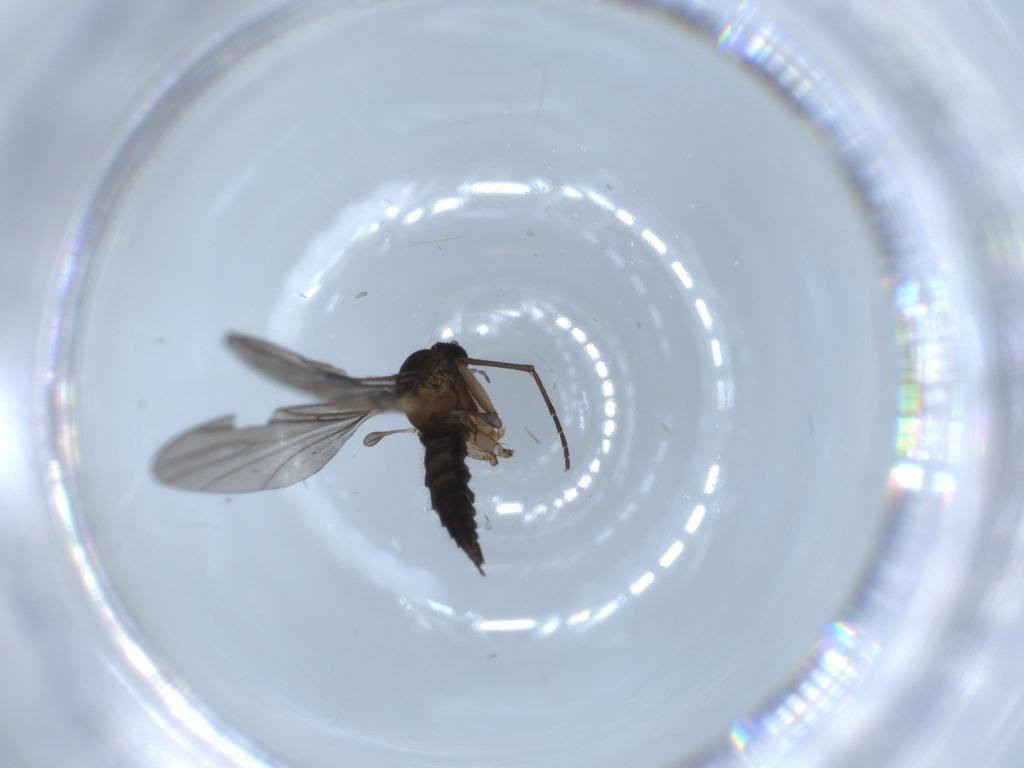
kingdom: Animalia
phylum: Arthropoda
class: Insecta
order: Diptera
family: Sciaridae
